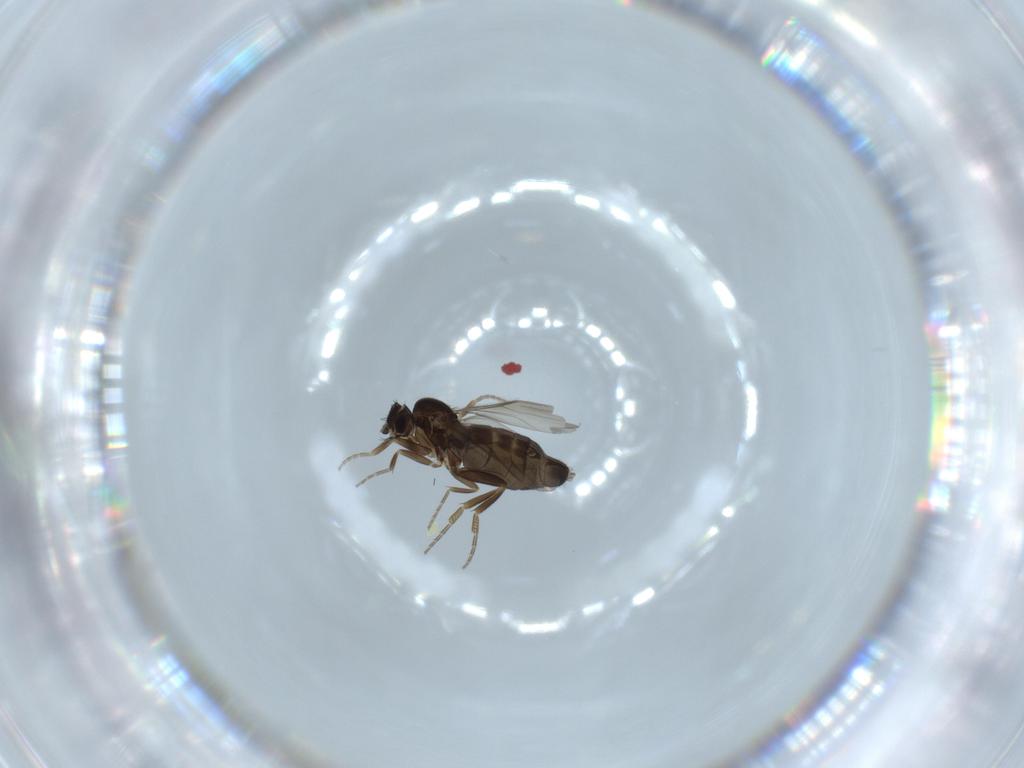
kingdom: Animalia
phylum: Arthropoda
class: Insecta
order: Diptera
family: Phoridae
